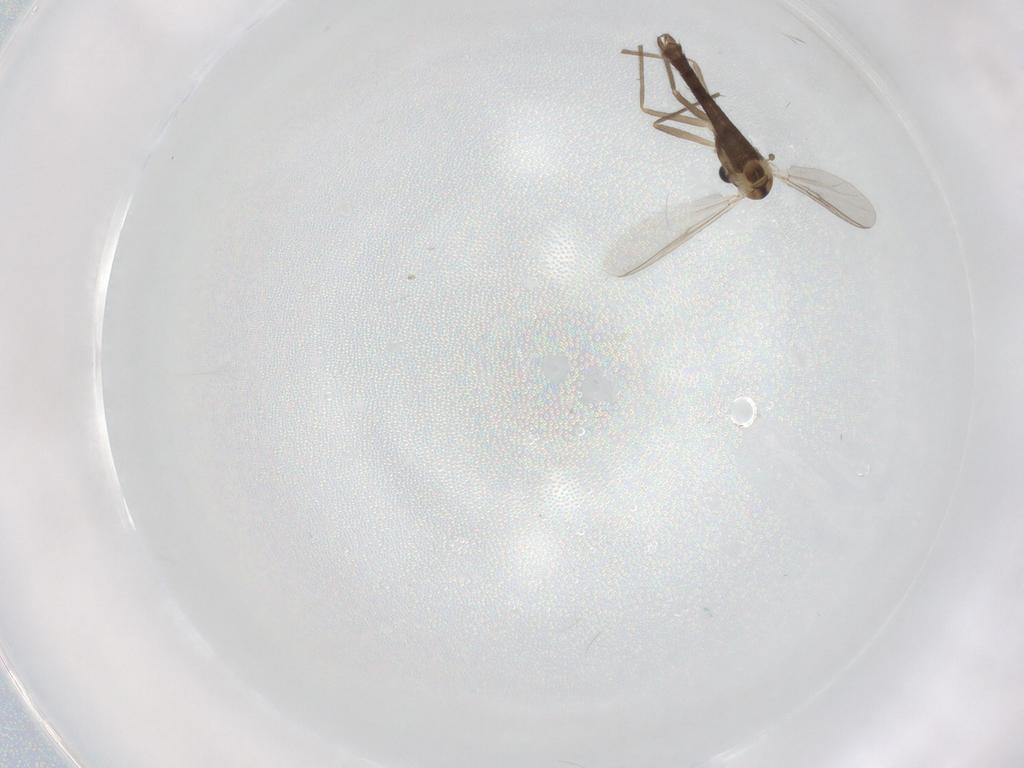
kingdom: Animalia
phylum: Arthropoda
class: Insecta
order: Diptera
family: Chironomidae
